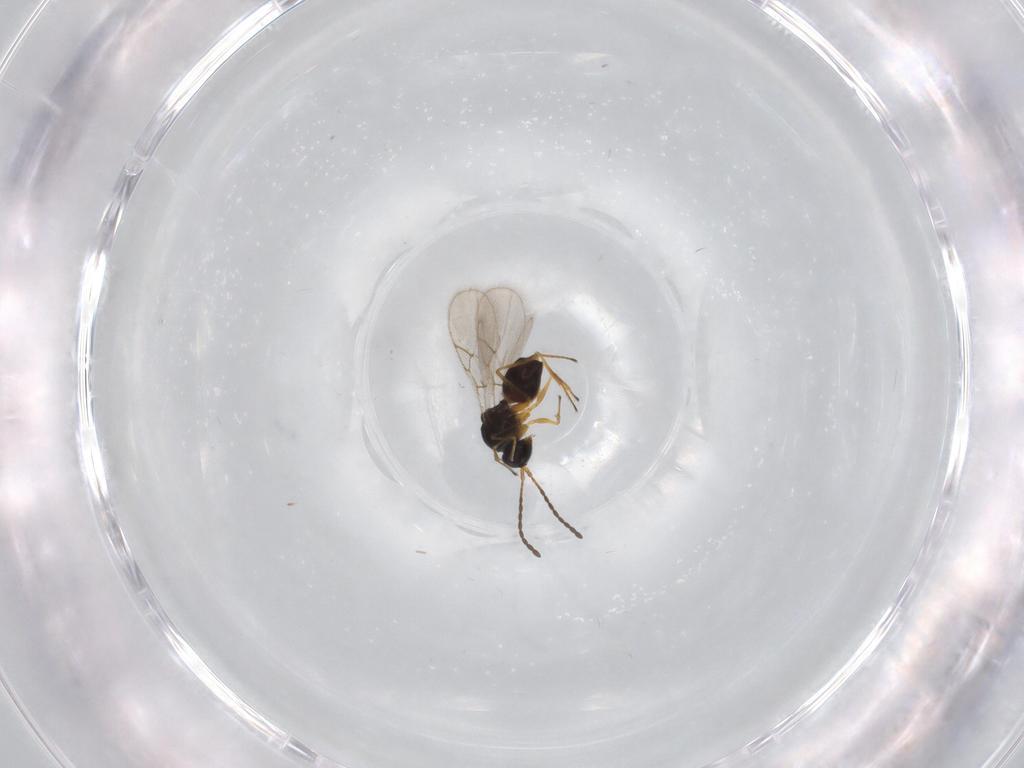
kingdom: Animalia
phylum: Arthropoda
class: Insecta
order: Hymenoptera
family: Figitidae
